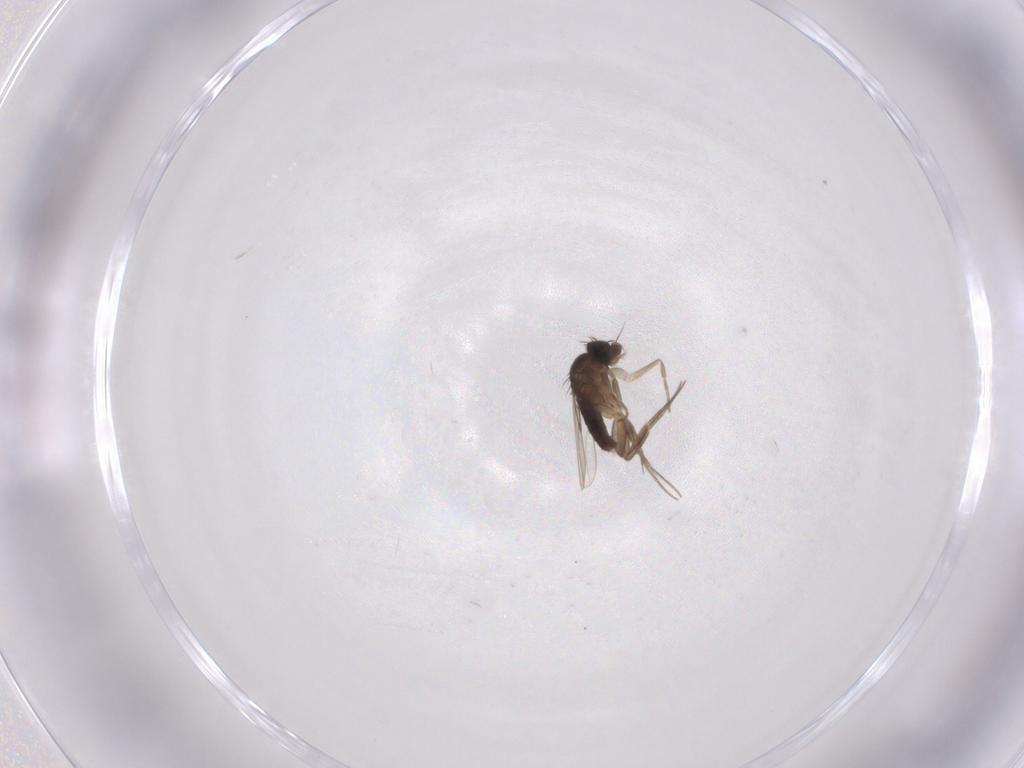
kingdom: Animalia
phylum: Arthropoda
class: Insecta
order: Diptera
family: Phoridae
